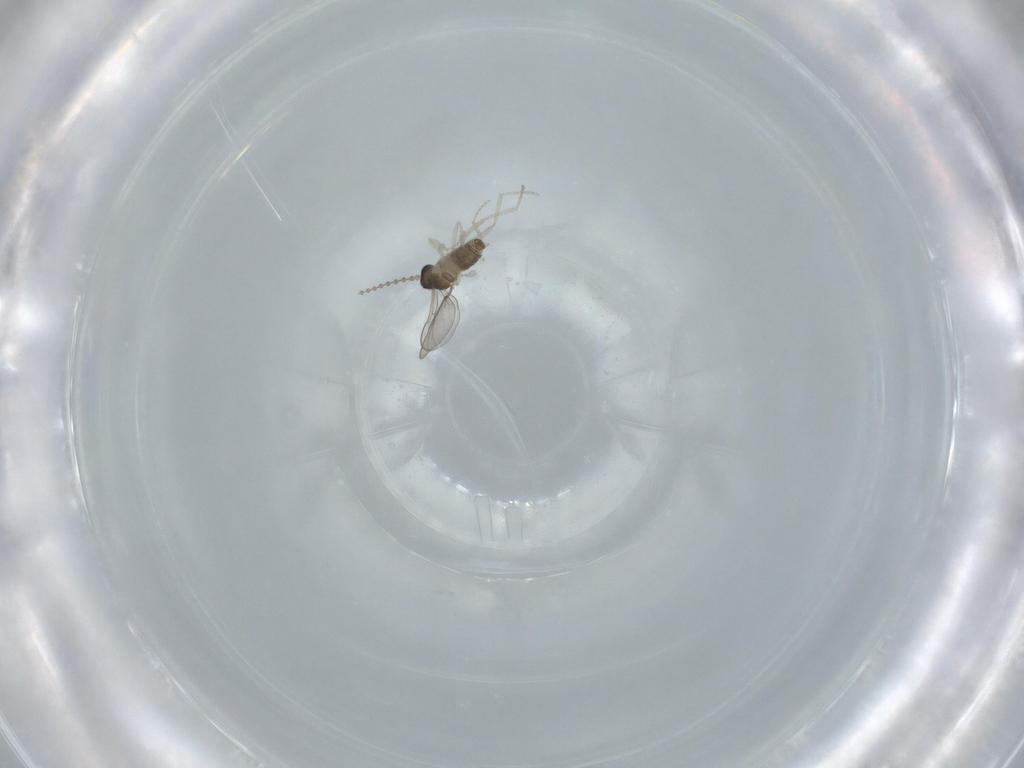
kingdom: Animalia
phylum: Arthropoda
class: Insecta
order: Diptera
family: Cecidomyiidae
